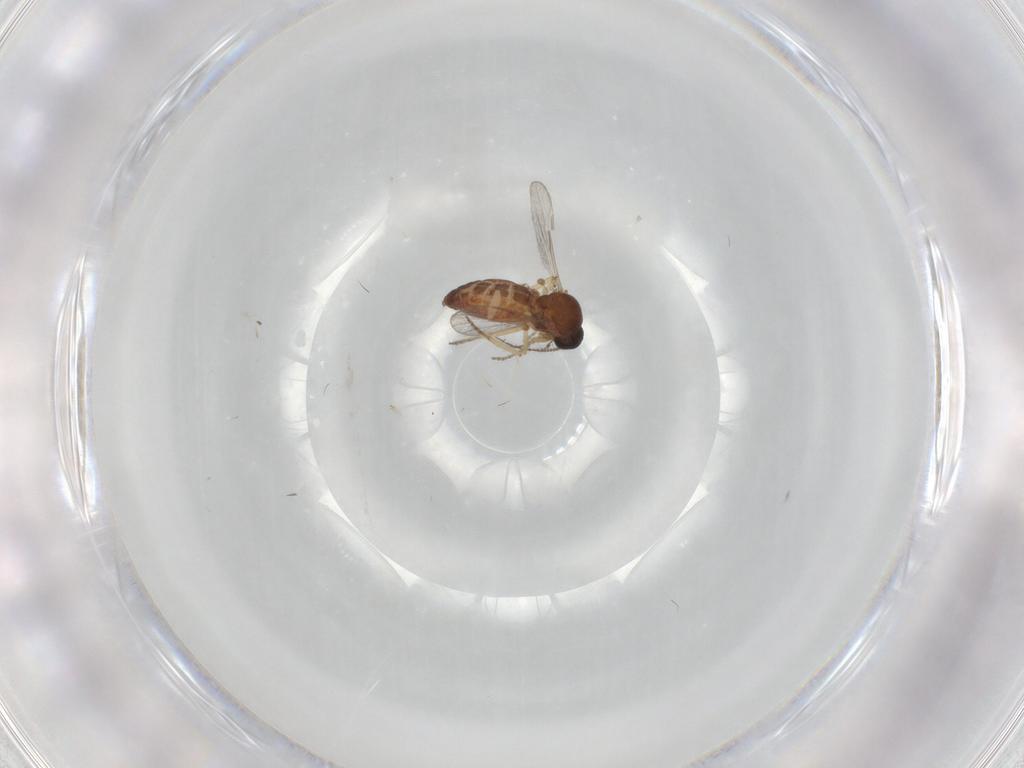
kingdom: Animalia
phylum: Arthropoda
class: Insecta
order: Diptera
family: Ceratopogonidae
